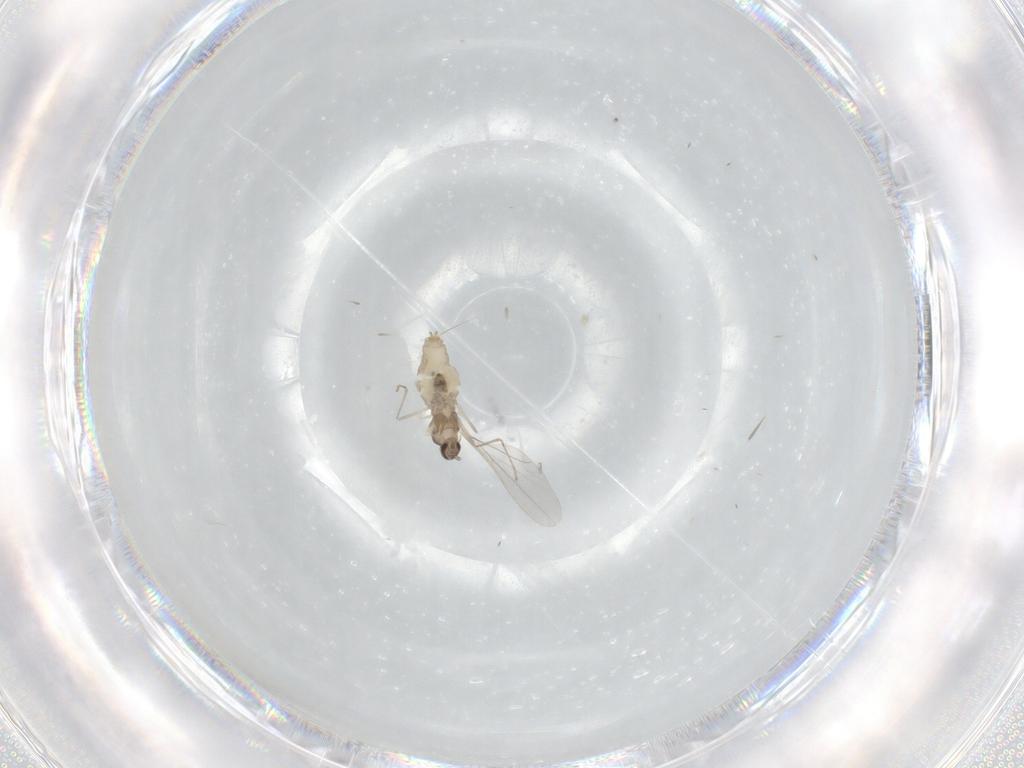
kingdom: Animalia
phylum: Arthropoda
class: Insecta
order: Diptera
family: Cecidomyiidae
